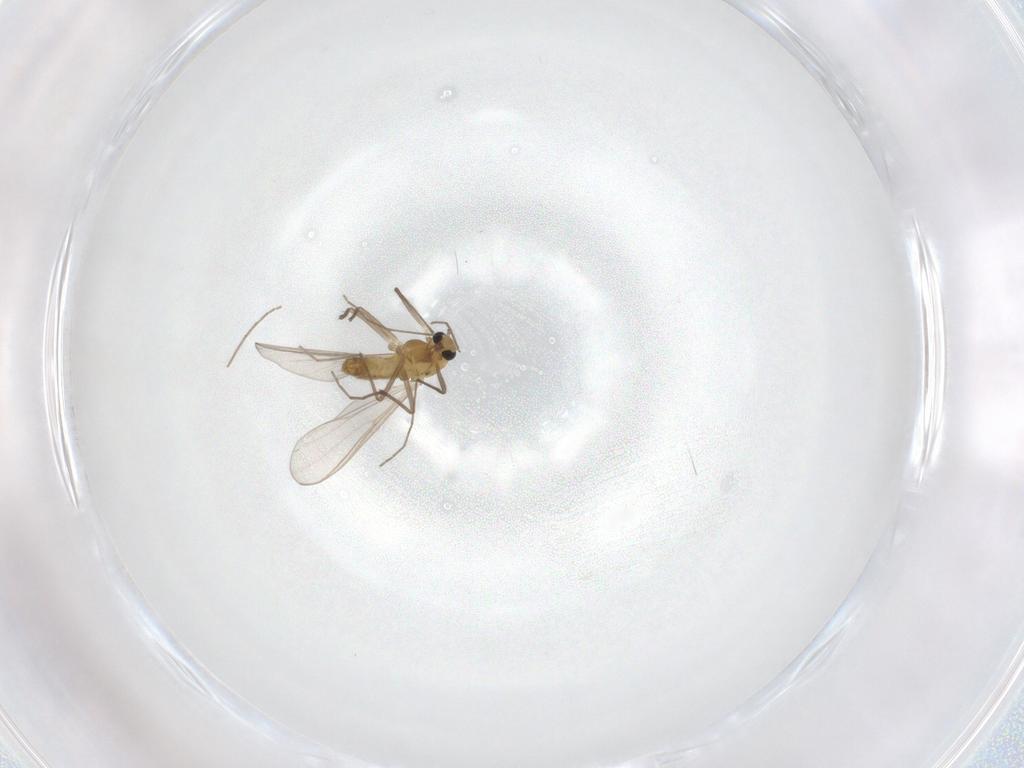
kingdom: Animalia
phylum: Arthropoda
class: Insecta
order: Diptera
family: Chironomidae
